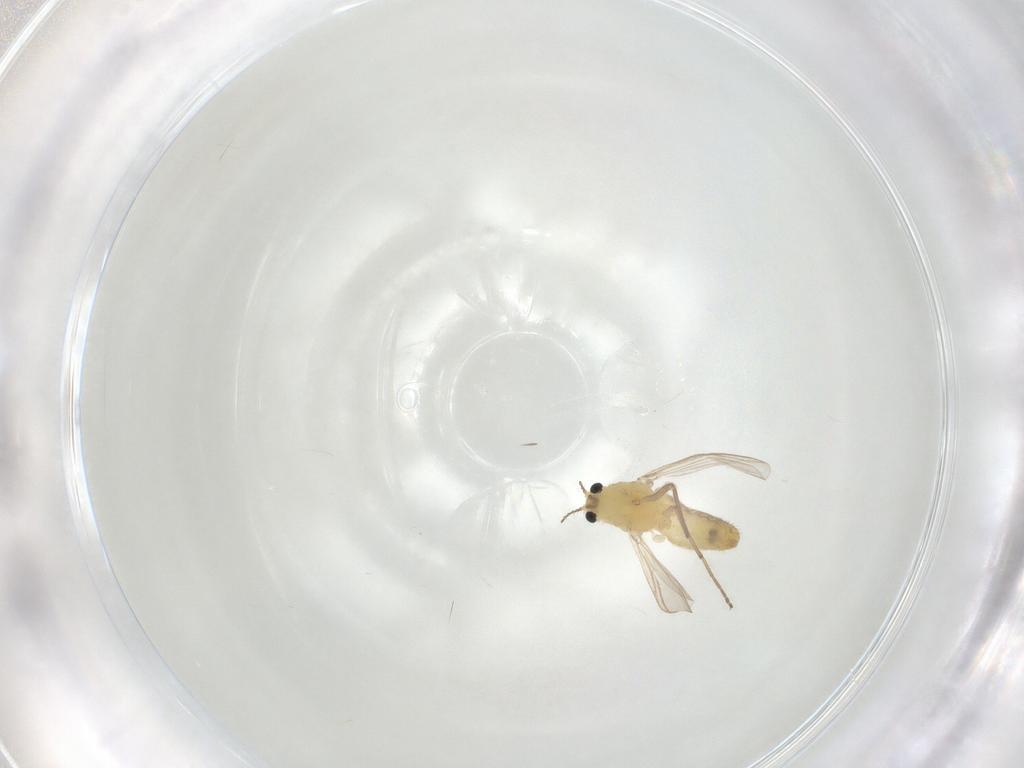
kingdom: Animalia
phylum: Arthropoda
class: Insecta
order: Diptera
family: Chironomidae
